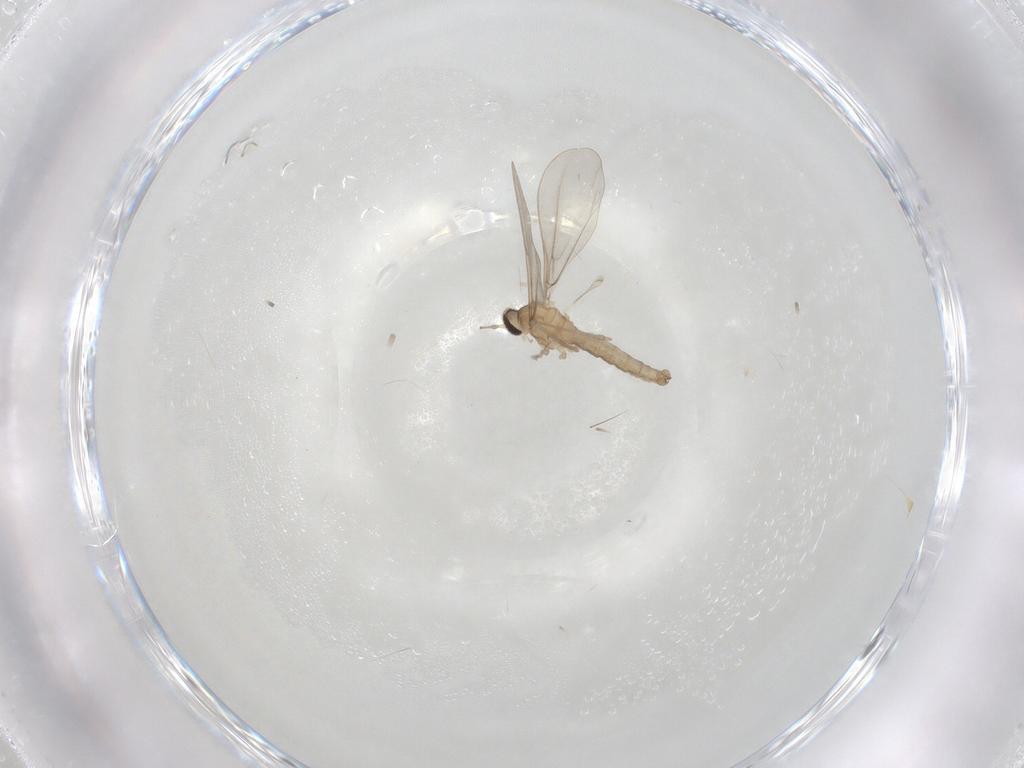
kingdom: Animalia
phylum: Arthropoda
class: Insecta
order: Diptera
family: Cecidomyiidae
